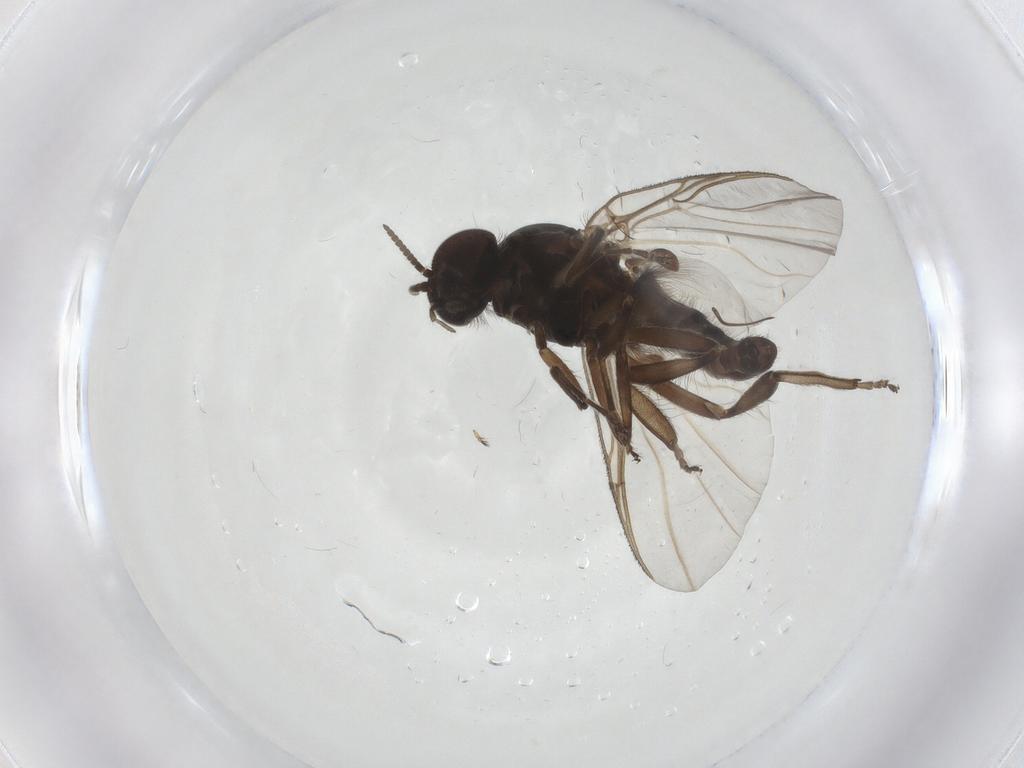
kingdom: Animalia
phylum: Arthropoda
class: Insecta
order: Diptera
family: Simuliidae
